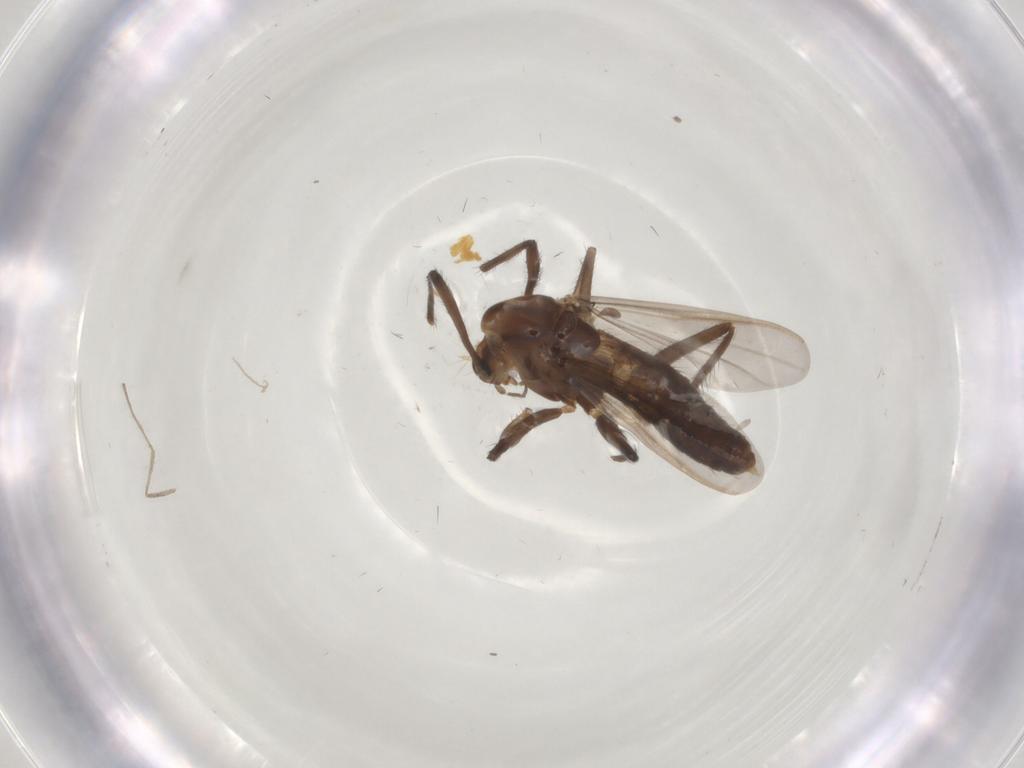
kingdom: Animalia
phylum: Arthropoda
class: Insecta
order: Diptera
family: Chironomidae
